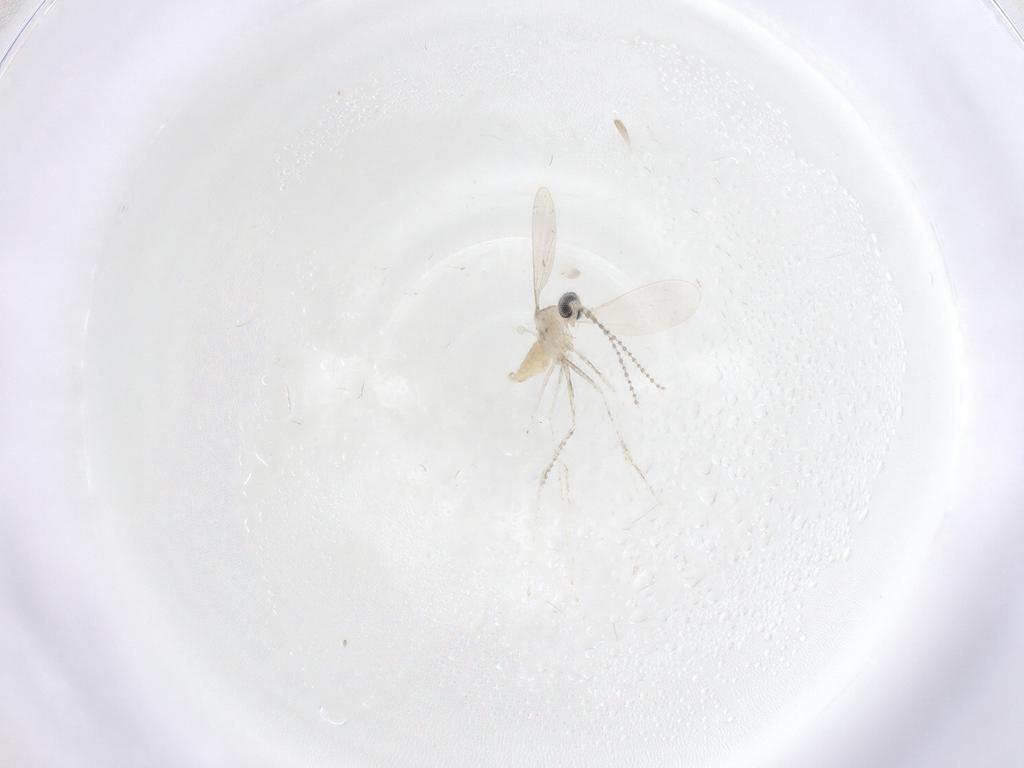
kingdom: Animalia
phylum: Arthropoda
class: Insecta
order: Diptera
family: Cecidomyiidae
